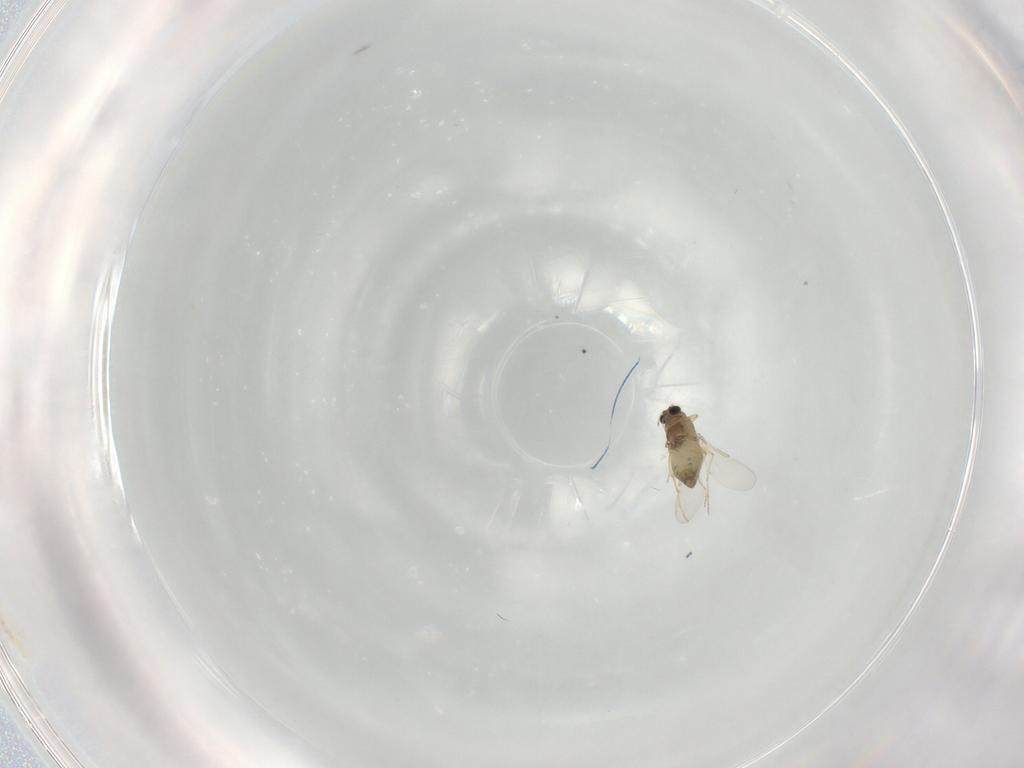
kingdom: Animalia
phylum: Arthropoda
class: Insecta
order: Diptera
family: Chironomidae
